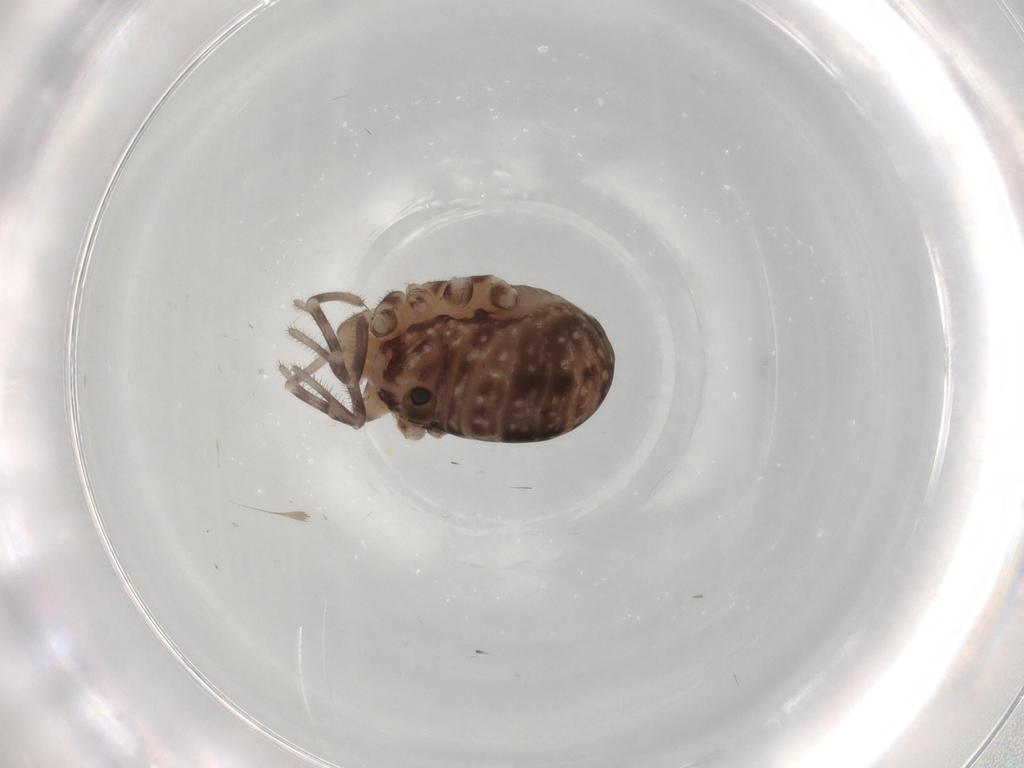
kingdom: Animalia
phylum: Arthropoda
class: Arachnida
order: Opiliones
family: Sclerosomatidae
